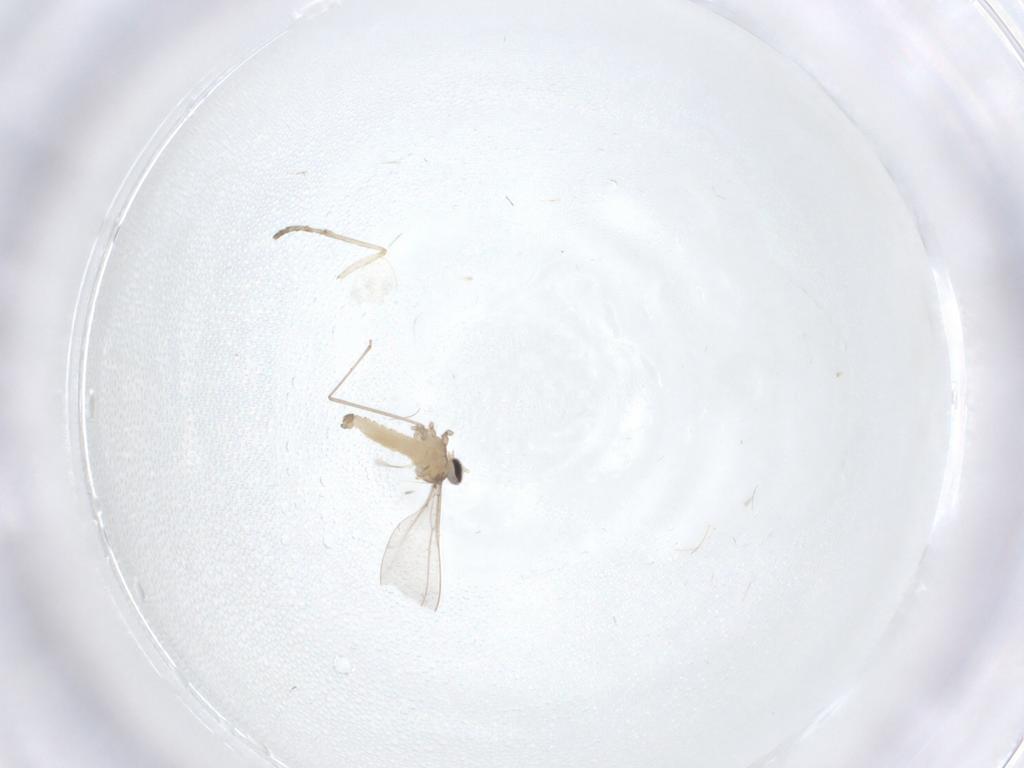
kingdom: Animalia
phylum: Arthropoda
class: Insecta
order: Diptera
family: Cecidomyiidae
